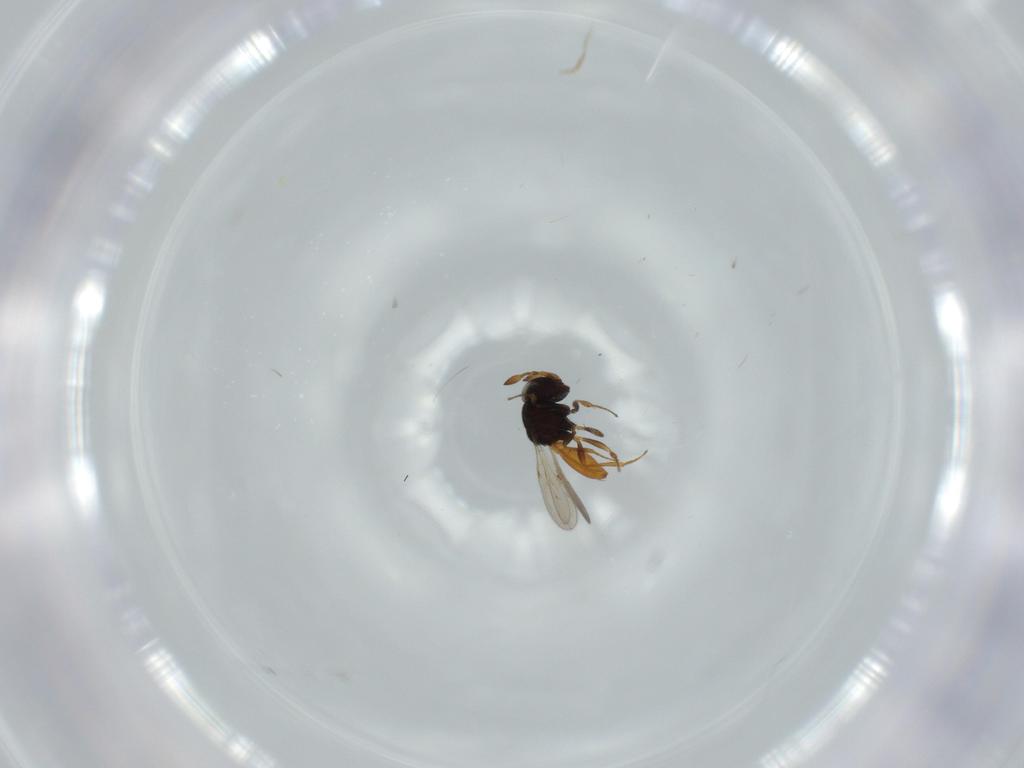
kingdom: Animalia
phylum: Arthropoda
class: Insecta
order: Hymenoptera
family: Scelionidae
